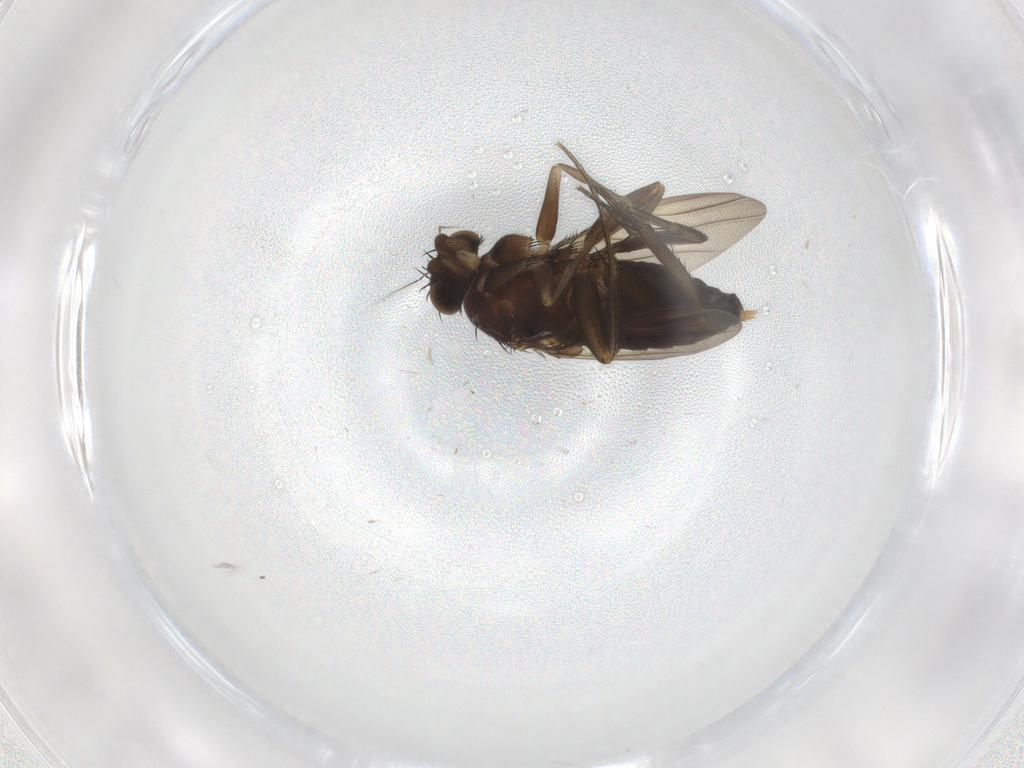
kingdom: Animalia
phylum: Arthropoda
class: Insecta
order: Diptera
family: Phoridae
